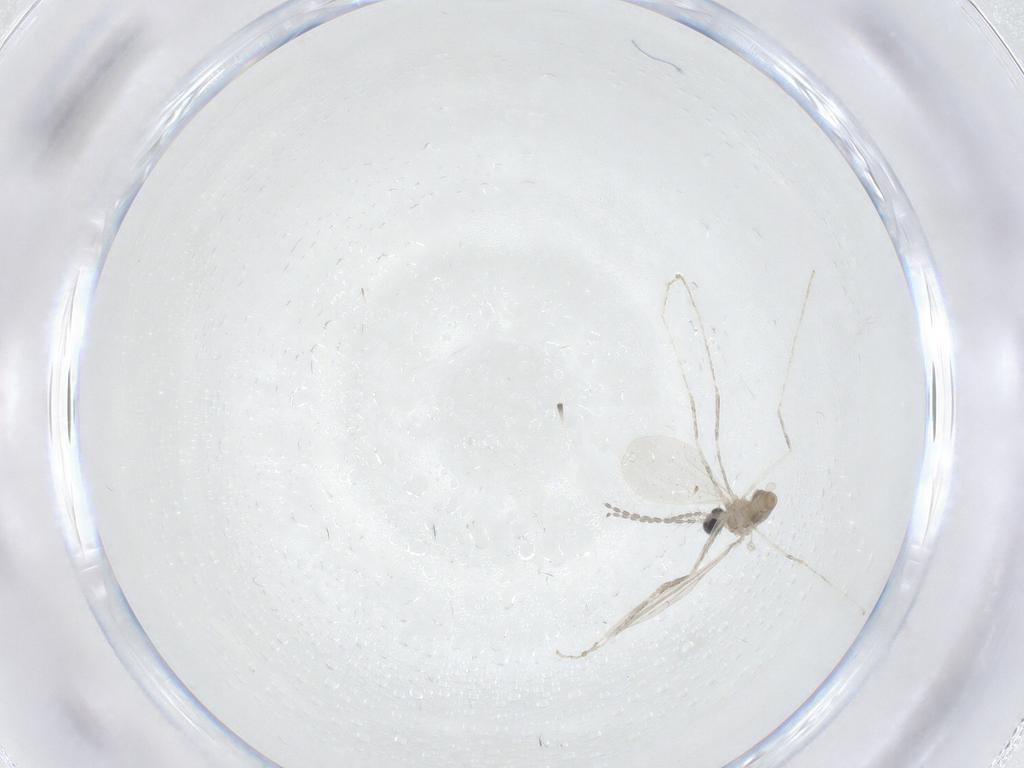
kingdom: Animalia
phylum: Arthropoda
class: Insecta
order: Diptera
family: Cecidomyiidae
